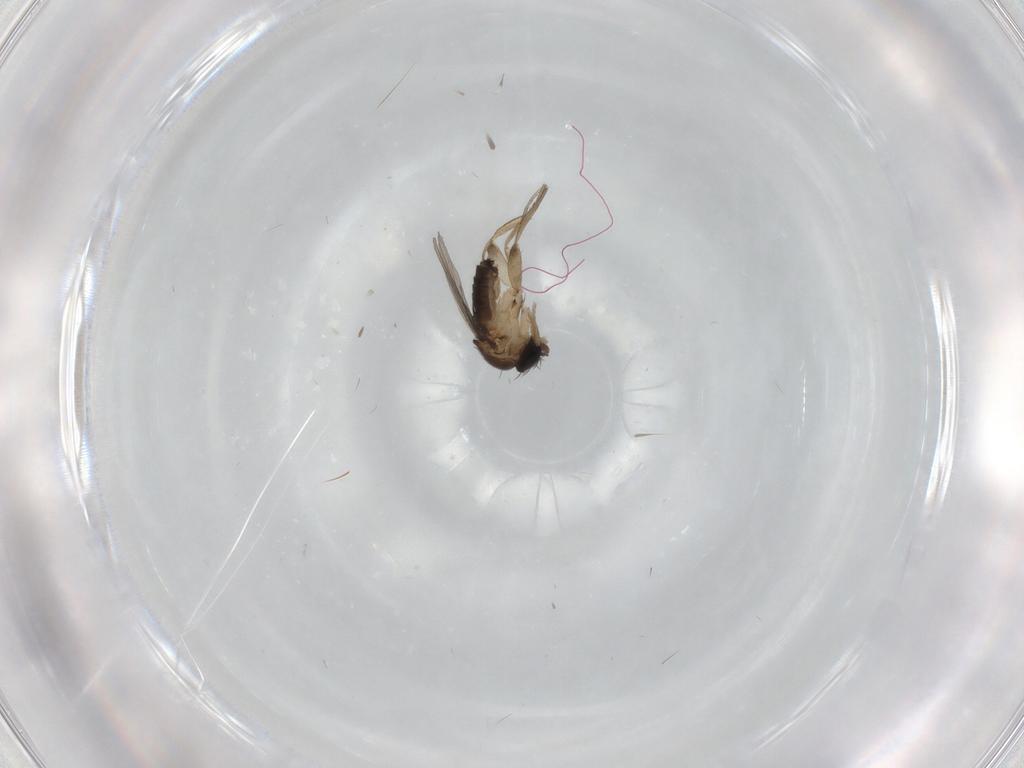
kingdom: Animalia
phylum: Arthropoda
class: Insecta
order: Diptera
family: Phoridae
